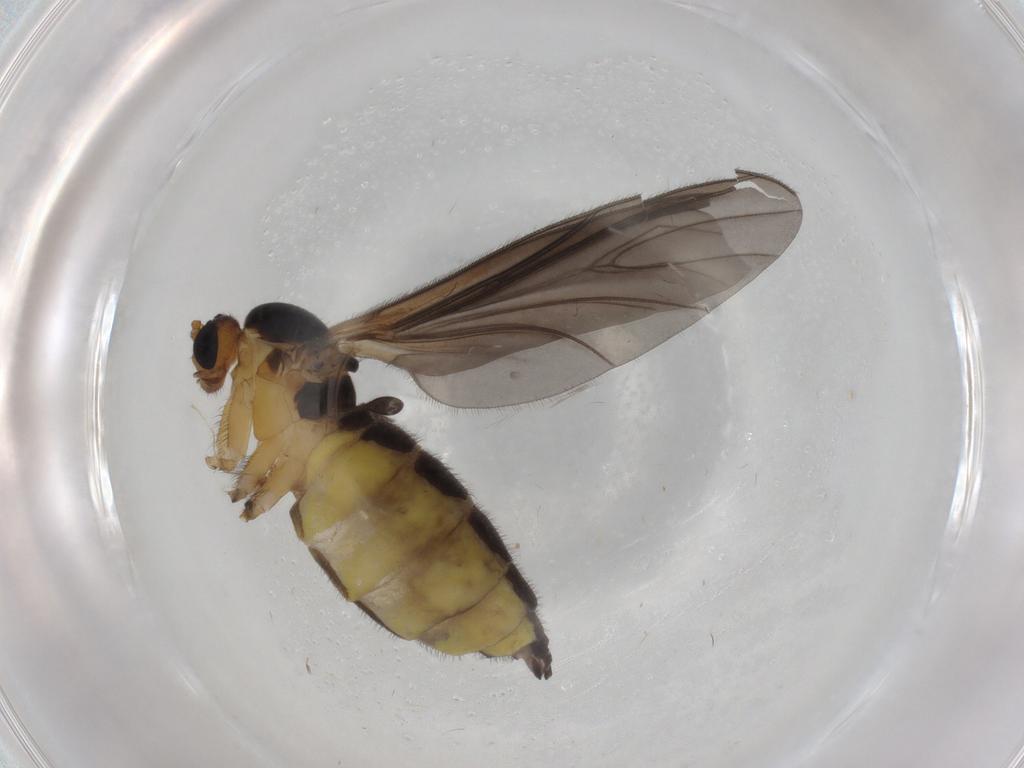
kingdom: Animalia
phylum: Arthropoda
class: Insecta
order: Diptera
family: Sciaridae
